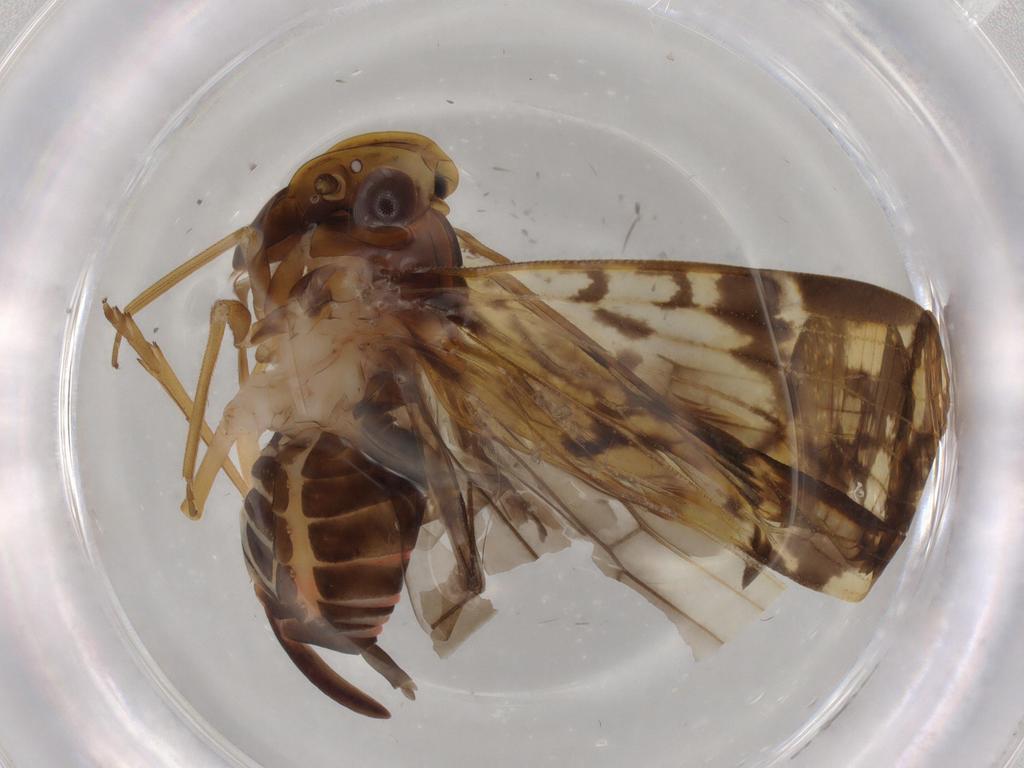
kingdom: Animalia
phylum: Arthropoda
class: Insecta
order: Hemiptera
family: Cixiidae
